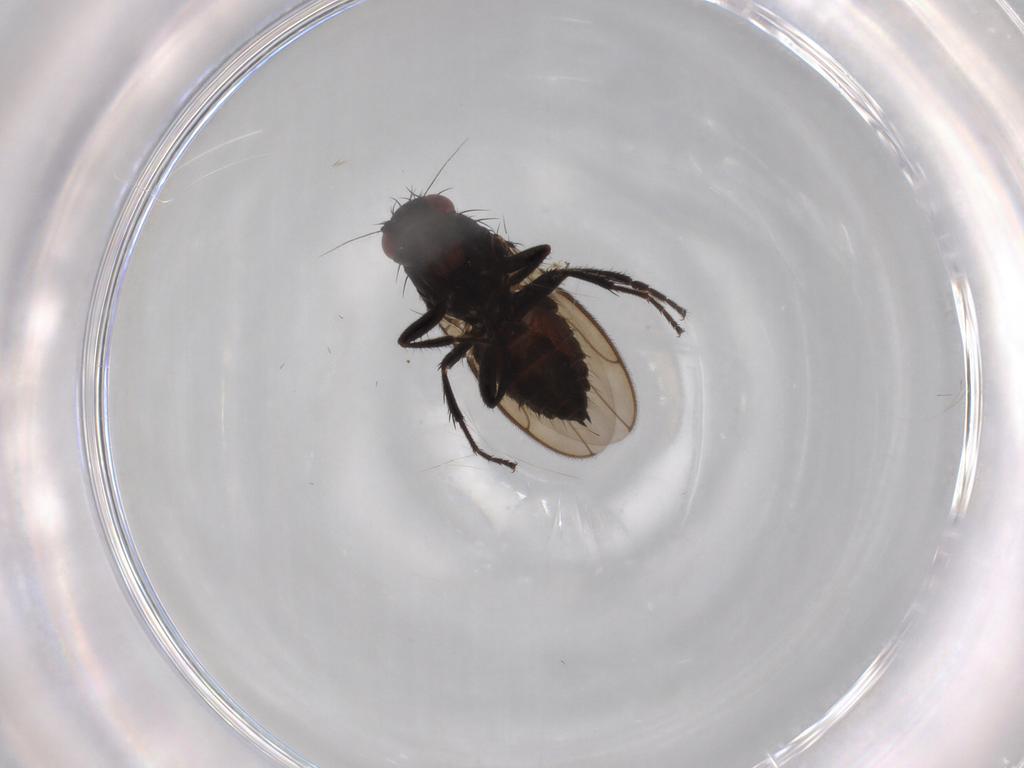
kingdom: Animalia
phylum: Arthropoda
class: Insecta
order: Diptera
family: Sphaeroceridae
